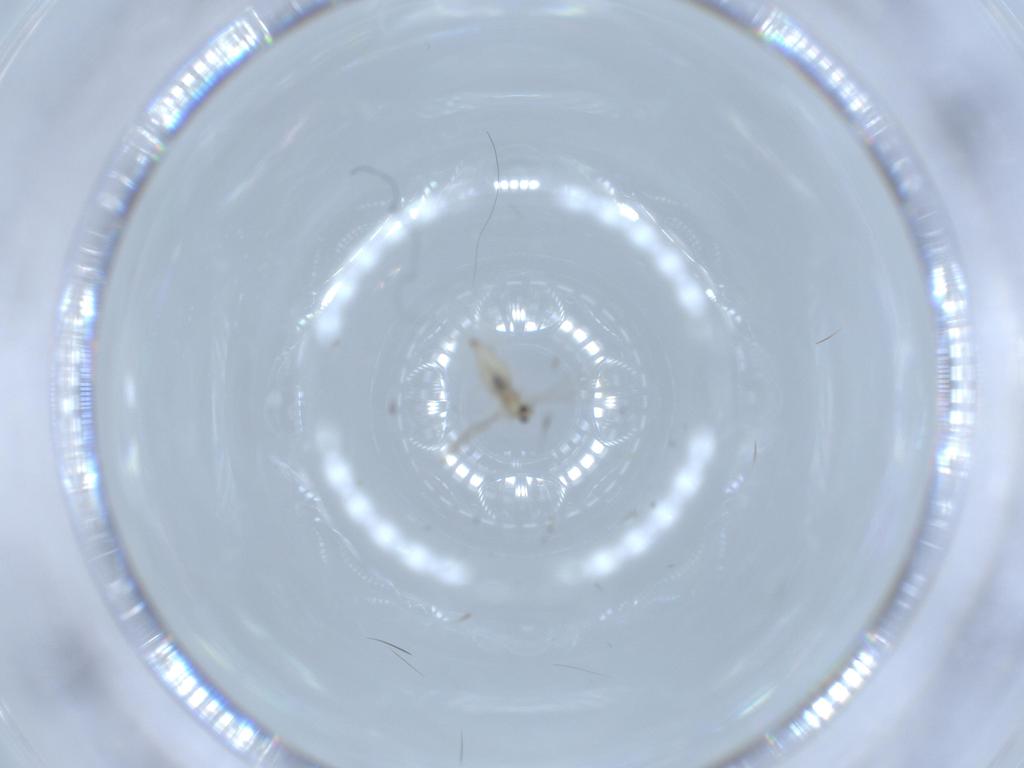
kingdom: Animalia
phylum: Arthropoda
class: Insecta
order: Diptera
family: Cecidomyiidae
